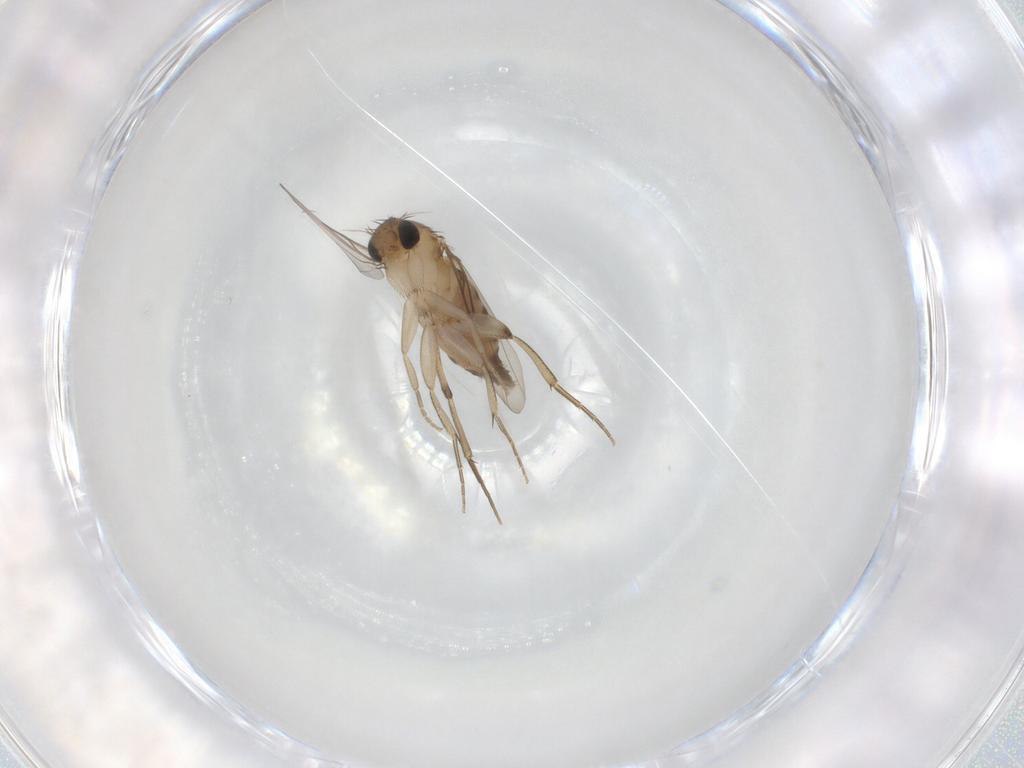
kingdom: Animalia
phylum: Arthropoda
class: Insecta
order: Diptera
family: Phoridae
